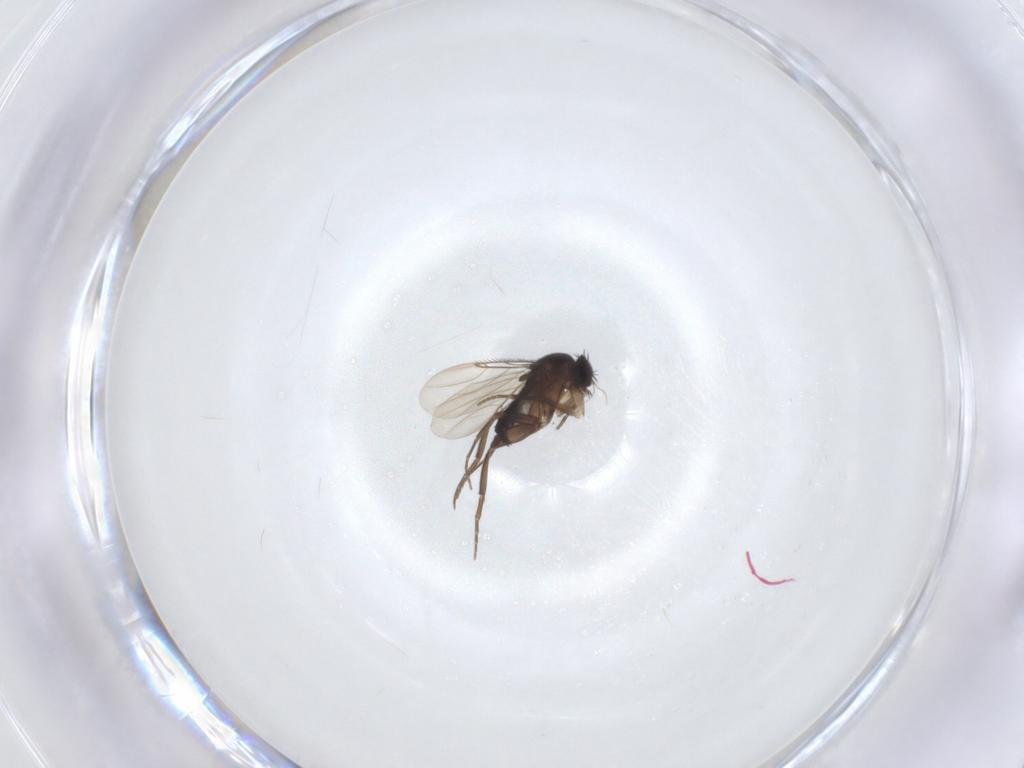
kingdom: Animalia
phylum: Arthropoda
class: Insecta
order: Diptera
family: Phoridae
